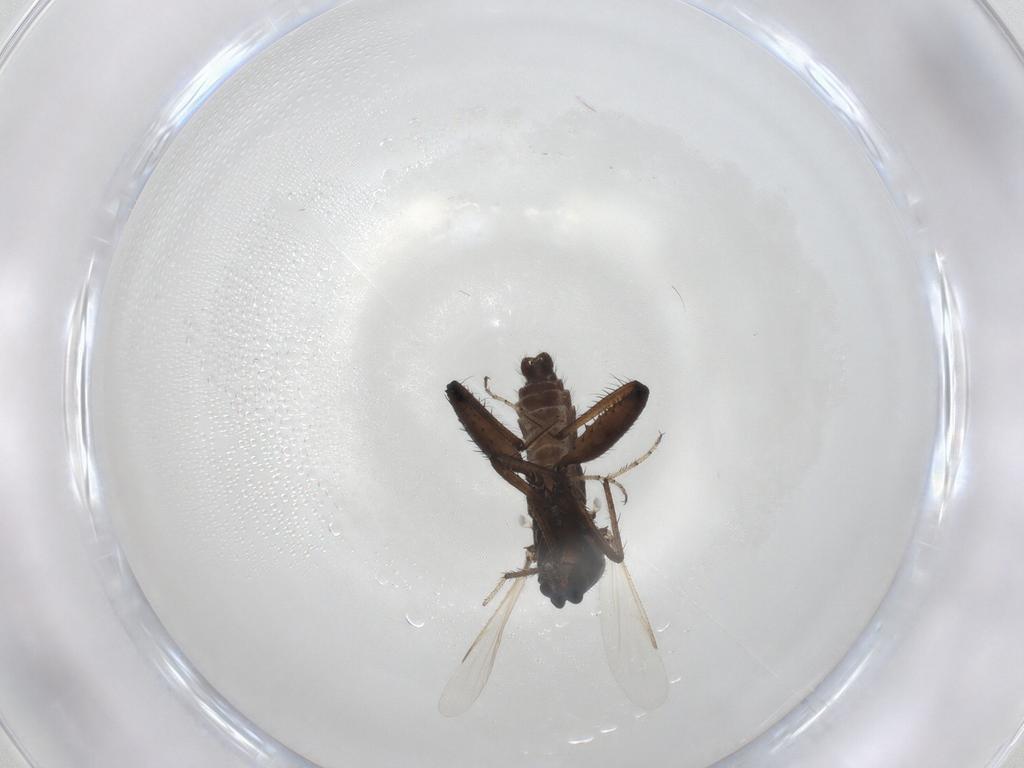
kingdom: Animalia
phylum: Arthropoda
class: Insecta
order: Diptera
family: Ceratopogonidae
